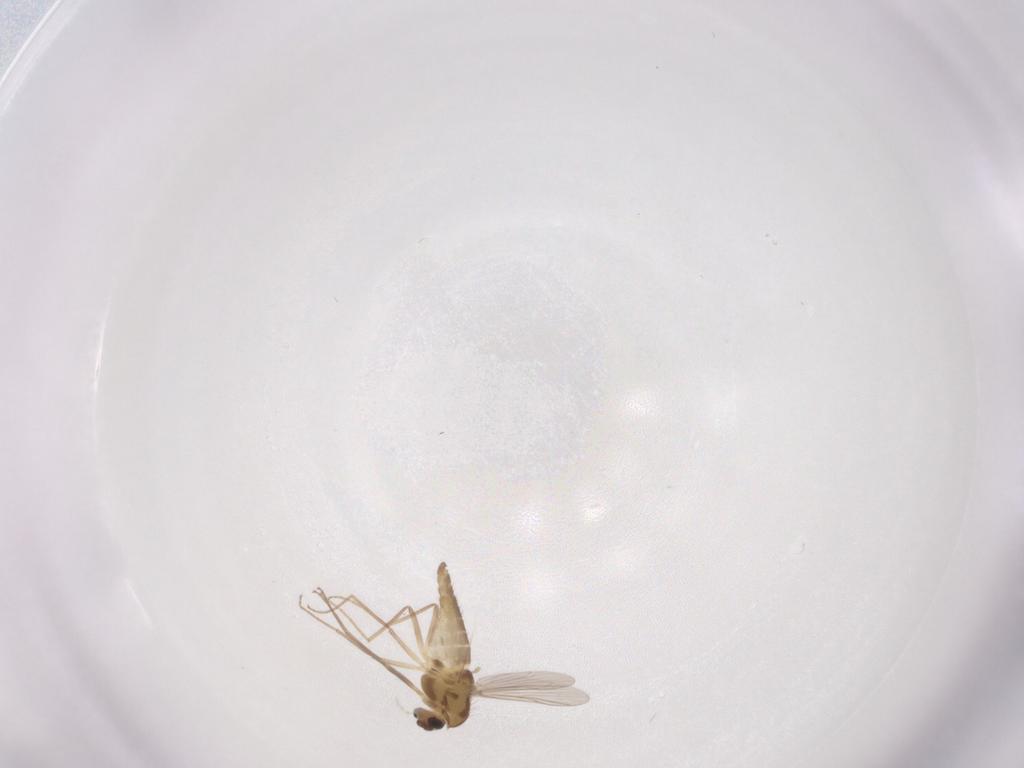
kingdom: Animalia
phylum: Arthropoda
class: Insecta
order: Diptera
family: Chironomidae
